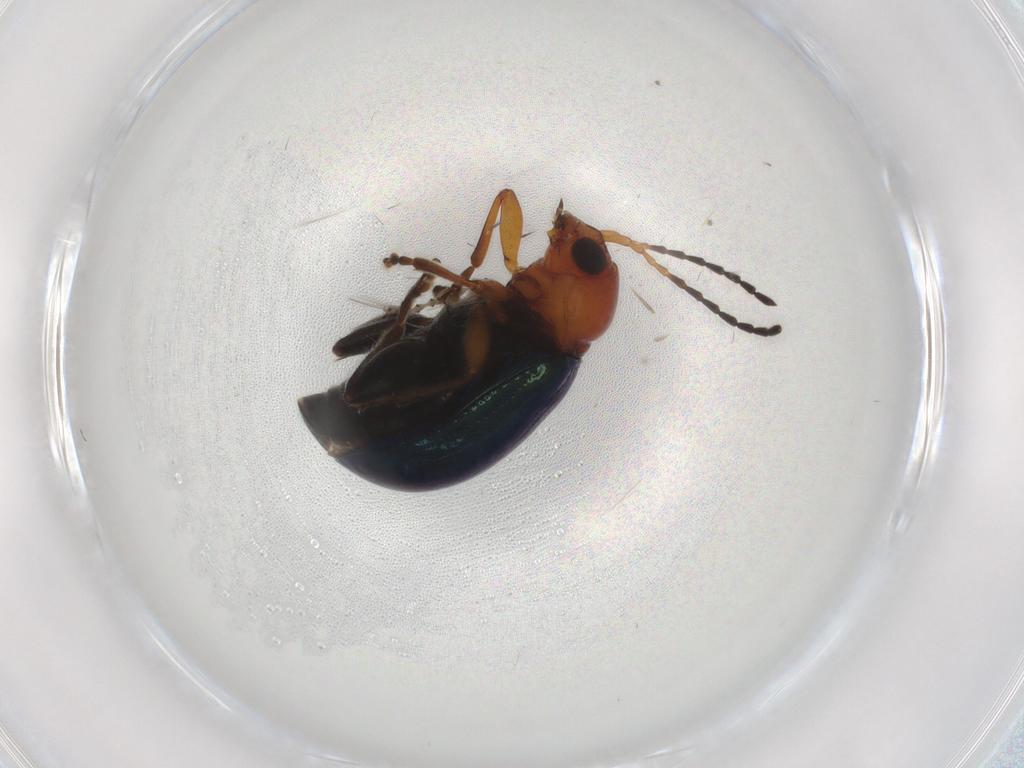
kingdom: Animalia
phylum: Arthropoda
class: Insecta
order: Coleoptera
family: Chrysomelidae
